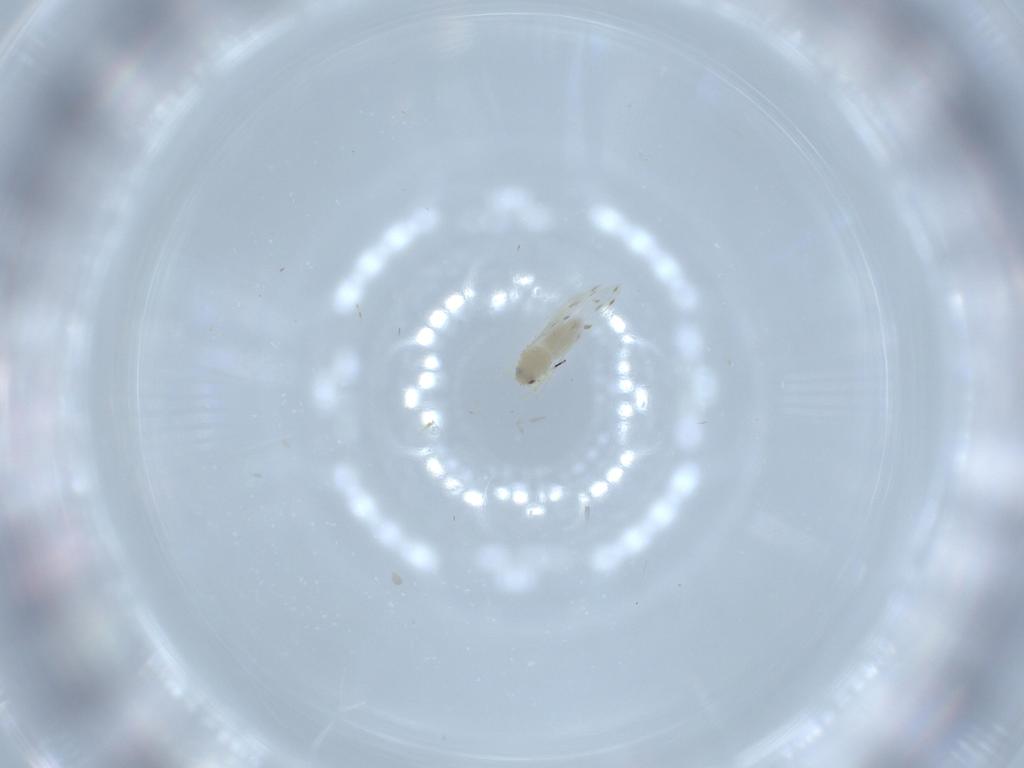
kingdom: Animalia
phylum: Arthropoda
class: Insecta
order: Hemiptera
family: Aleyrodidae
